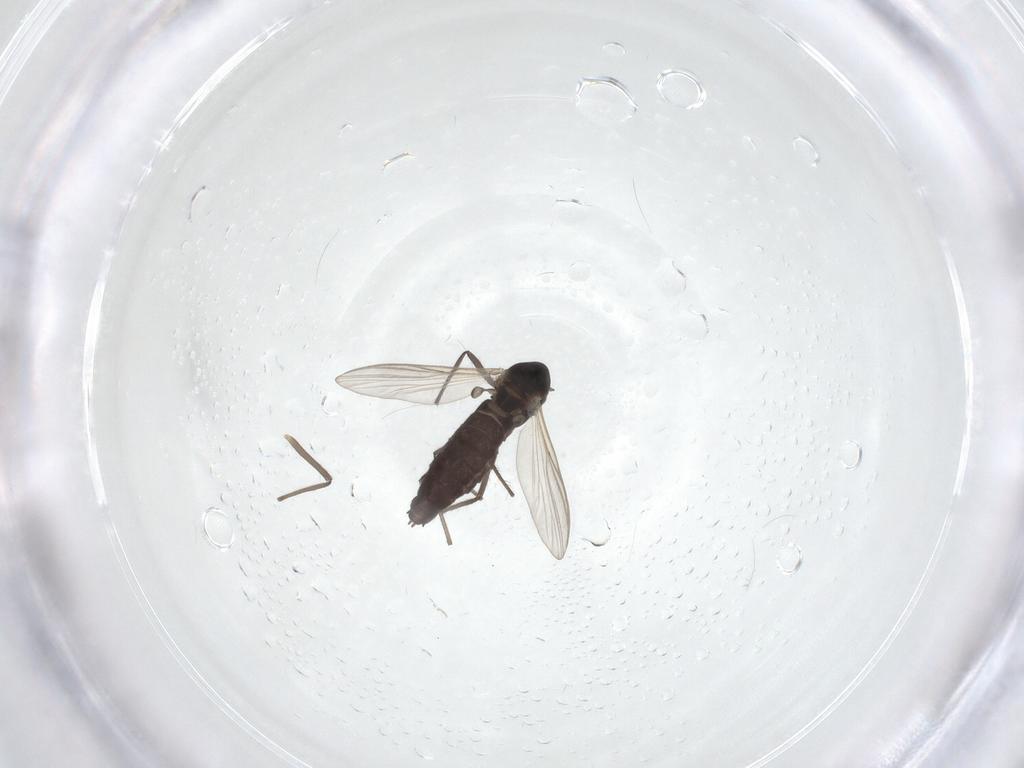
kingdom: Animalia
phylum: Arthropoda
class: Insecta
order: Diptera
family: Chironomidae
